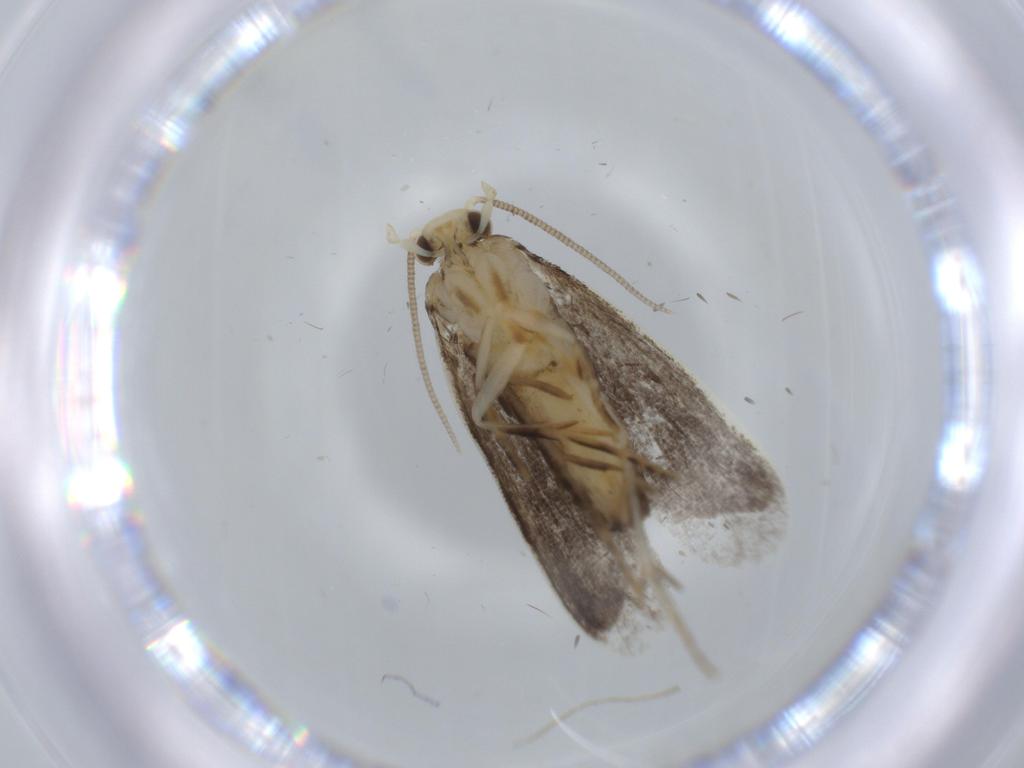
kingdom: Animalia
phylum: Arthropoda
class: Insecta
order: Lepidoptera
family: Dryadaulidae
